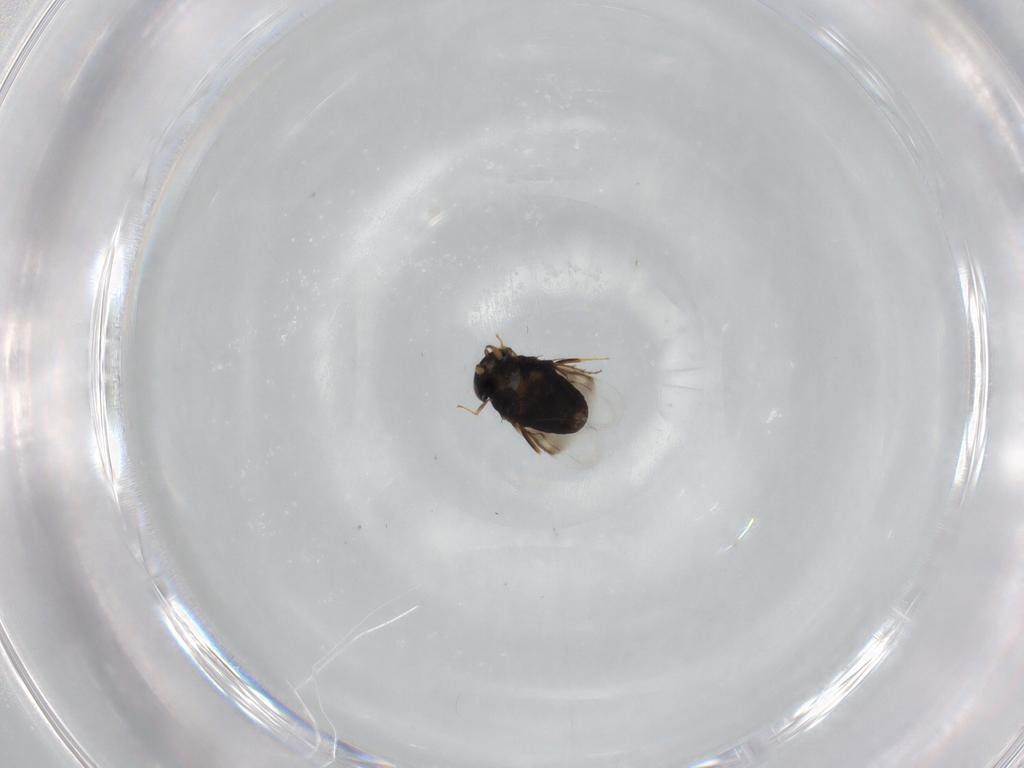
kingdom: Animalia
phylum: Arthropoda
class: Insecta
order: Hymenoptera
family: Signiphoridae
